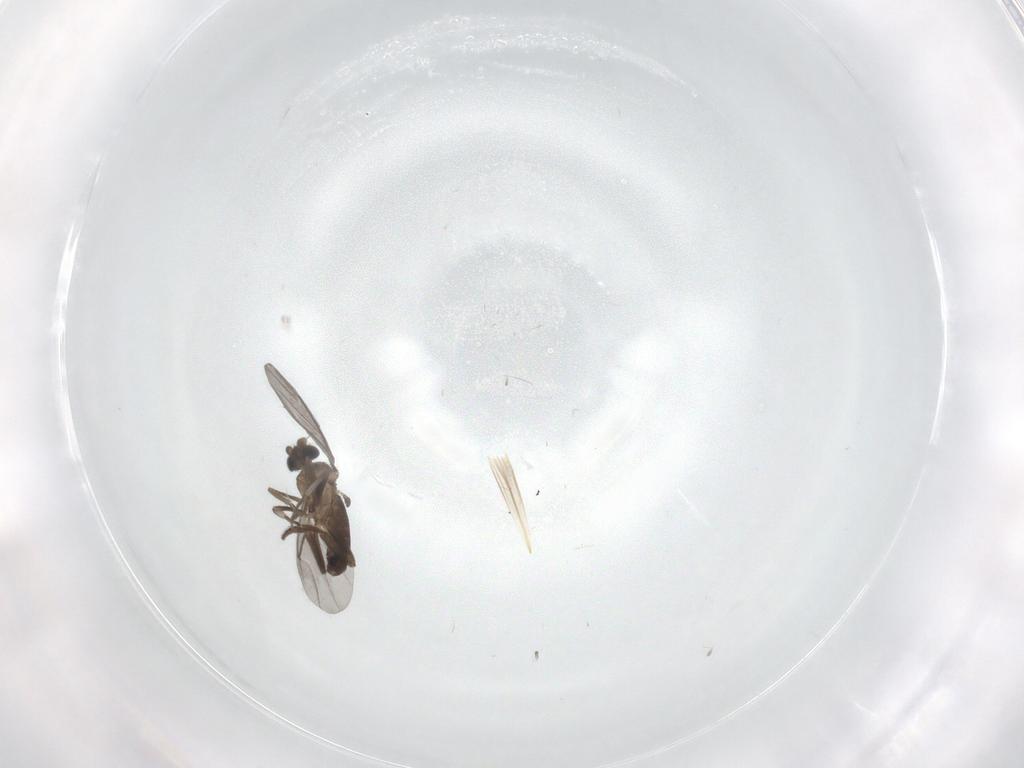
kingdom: Animalia
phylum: Arthropoda
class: Insecta
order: Diptera
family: Phoridae
